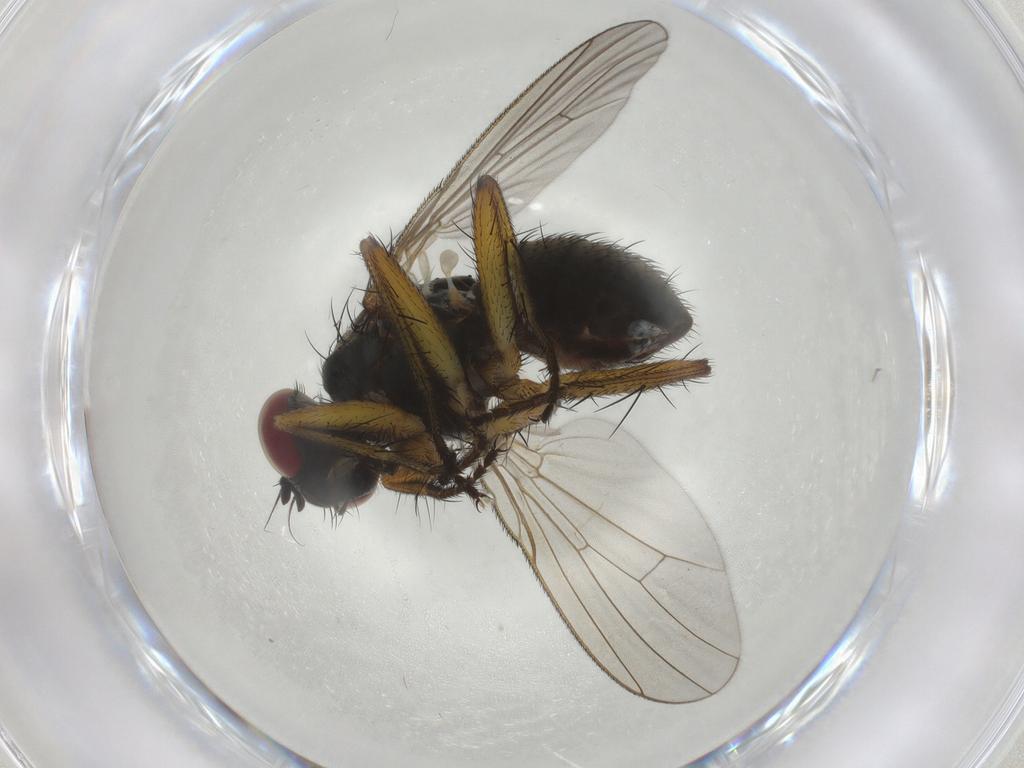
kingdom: Animalia
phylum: Arthropoda
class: Insecta
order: Diptera
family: Muscidae
